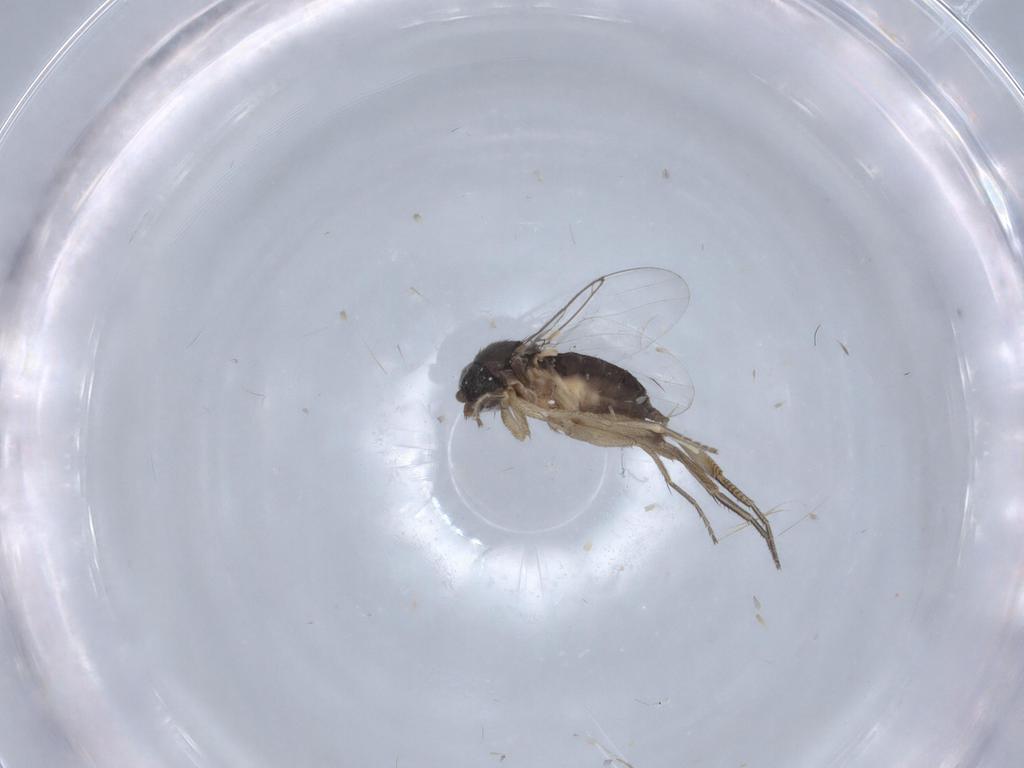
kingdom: Animalia
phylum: Arthropoda
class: Insecta
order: Diptera
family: Phoridae
